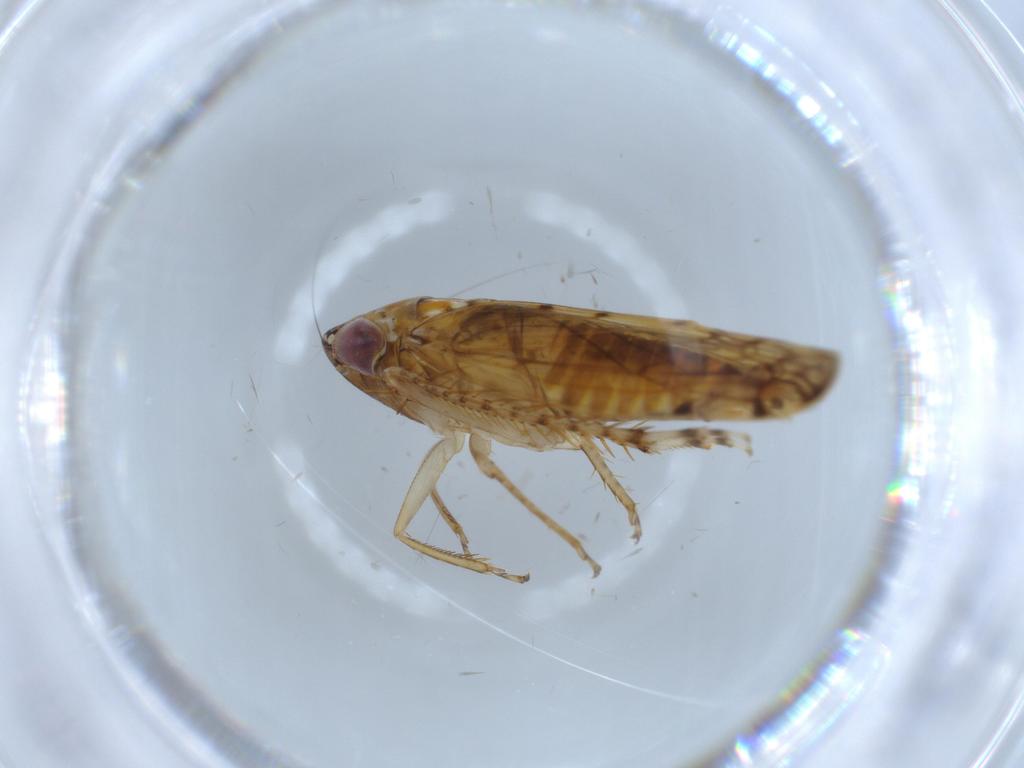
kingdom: Animalia
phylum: Arthropoda
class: Insecta
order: Hemiptera
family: Cicadellidae
